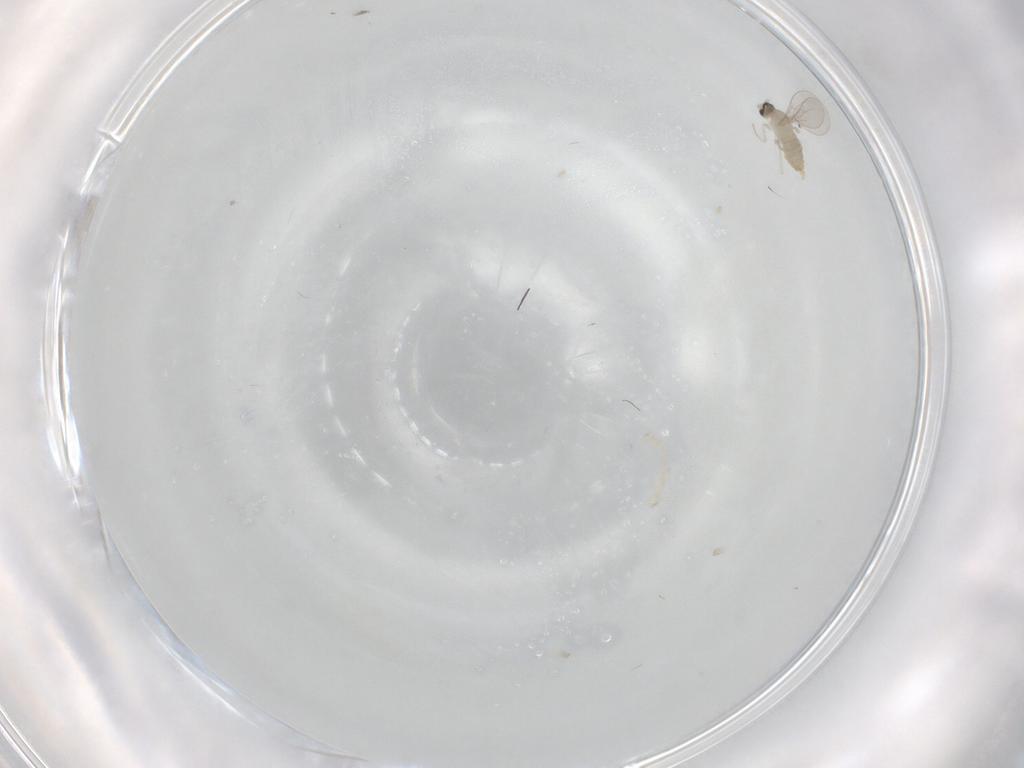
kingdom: Animalia
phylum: Arthropoda
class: Insecta
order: Diptera
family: Cecidomyiidae
